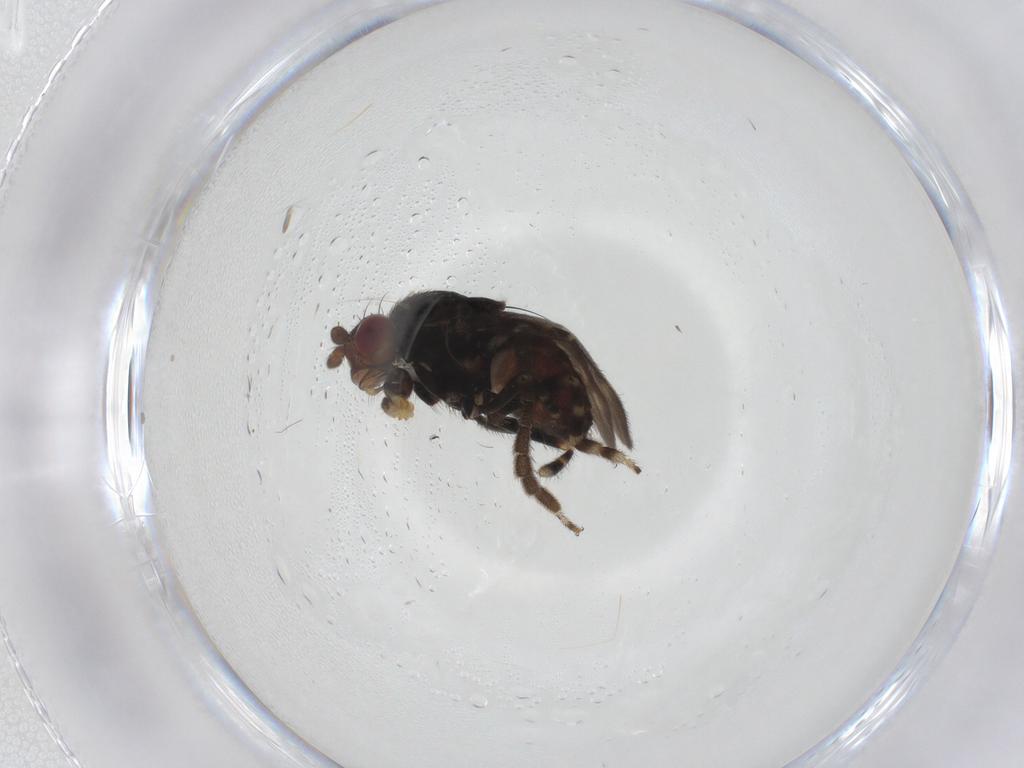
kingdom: Animalia
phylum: Arthropoda
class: Insecta
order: Diptera
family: Sphaeroceridae
